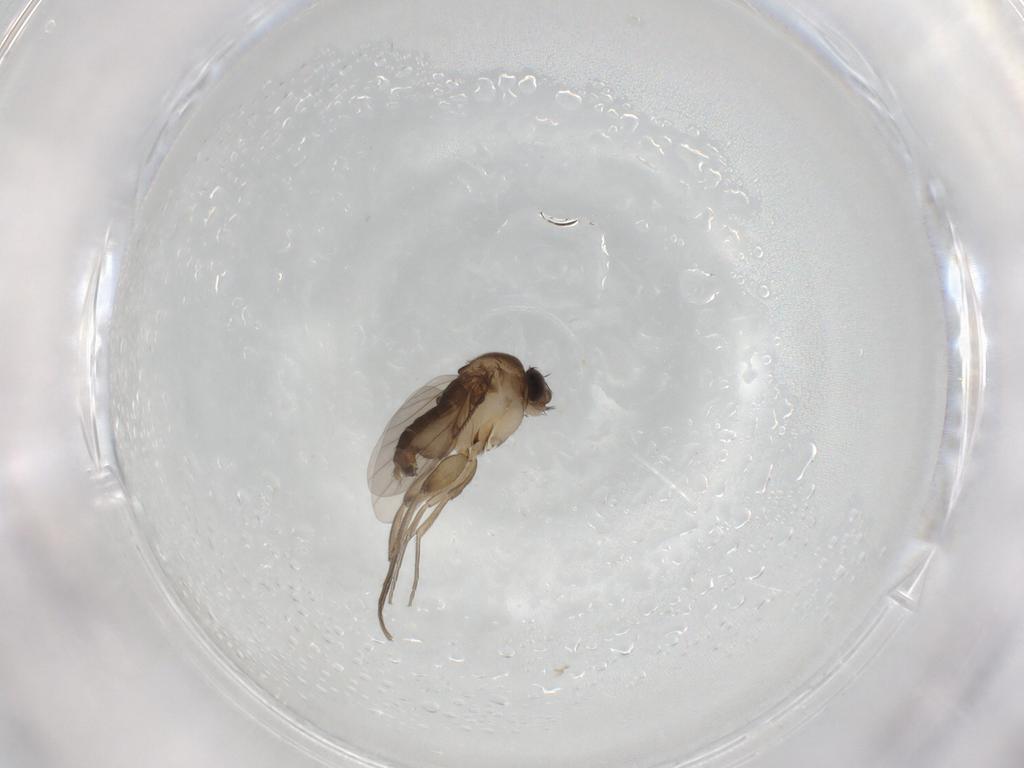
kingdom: Animalia
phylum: Arthropoda
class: Insecta
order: Diptera
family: Phoridae
